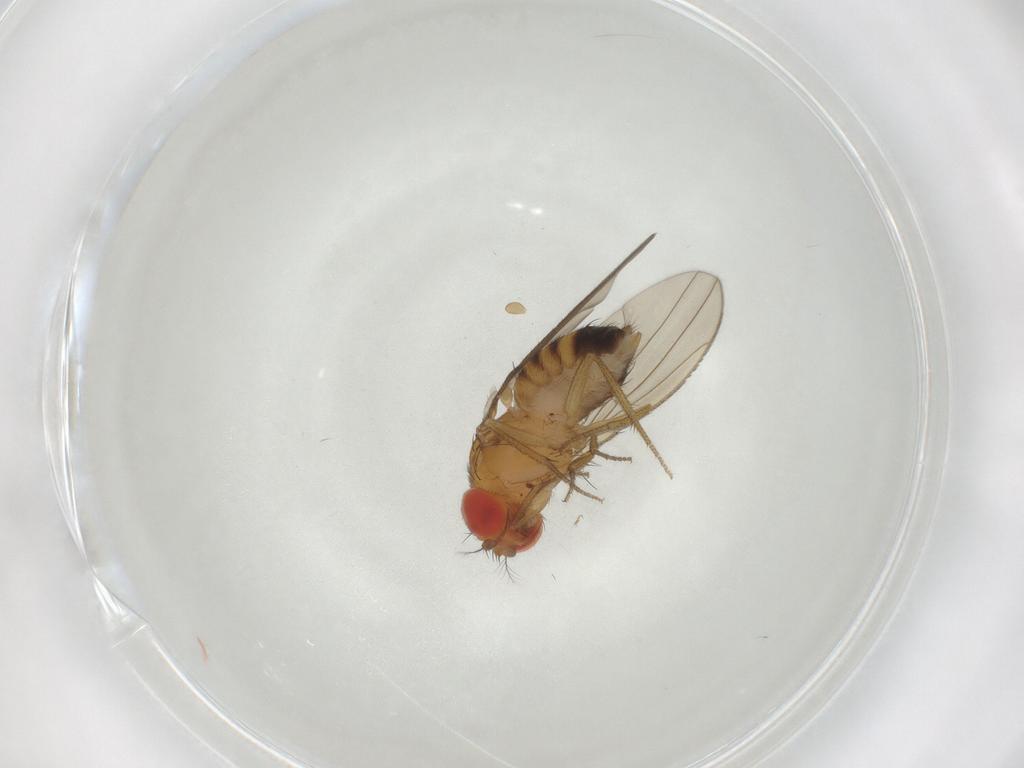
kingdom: Animalia
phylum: Arthropoda
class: Insecta
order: Diptera
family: Drosophilidae
